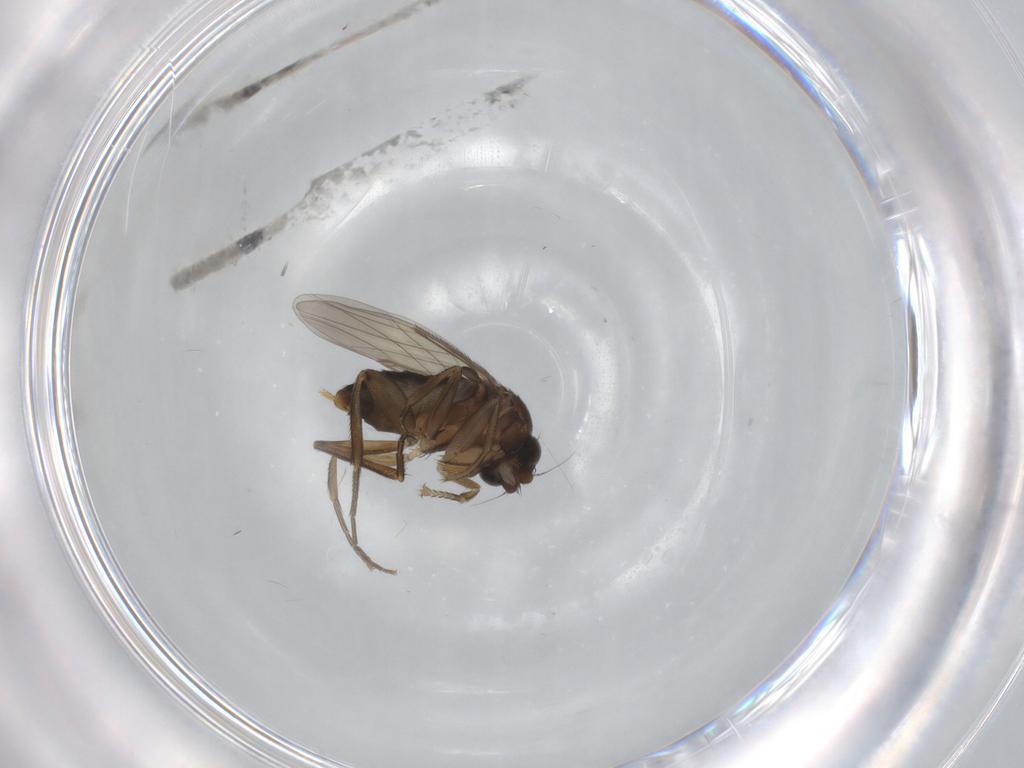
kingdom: Animalia
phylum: Arthropoda
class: Insecta
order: Diptera
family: Phoridae
